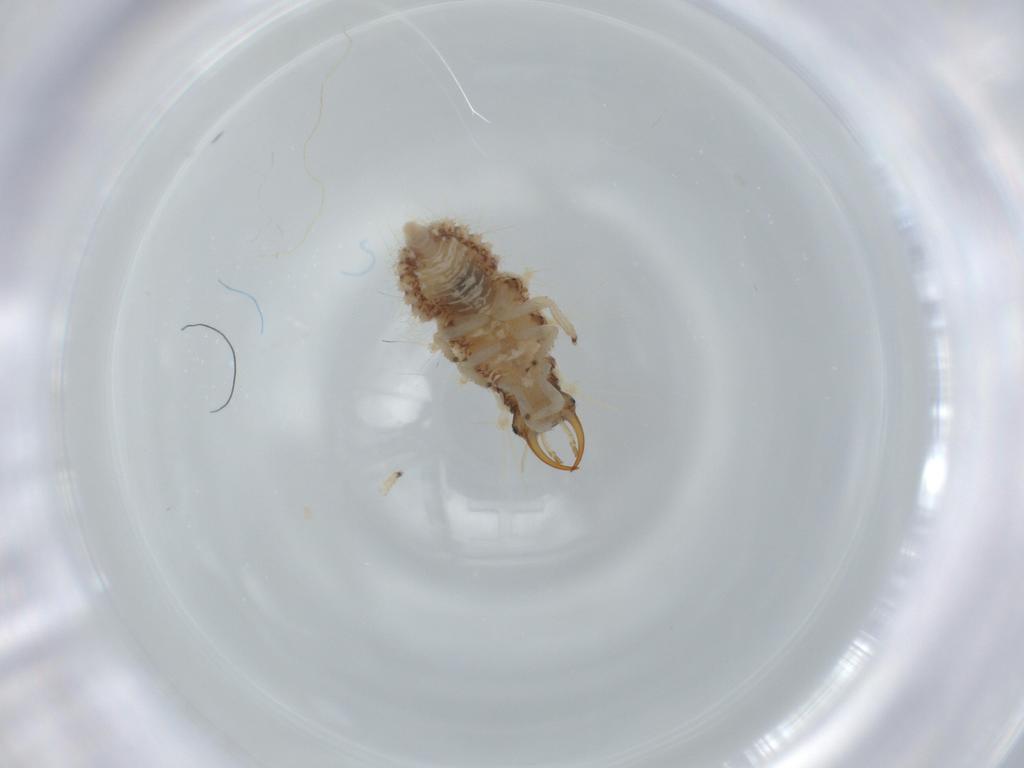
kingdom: Animalia
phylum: Arthropoda
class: Insecta
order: Neuroptera
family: Chrysopidae
